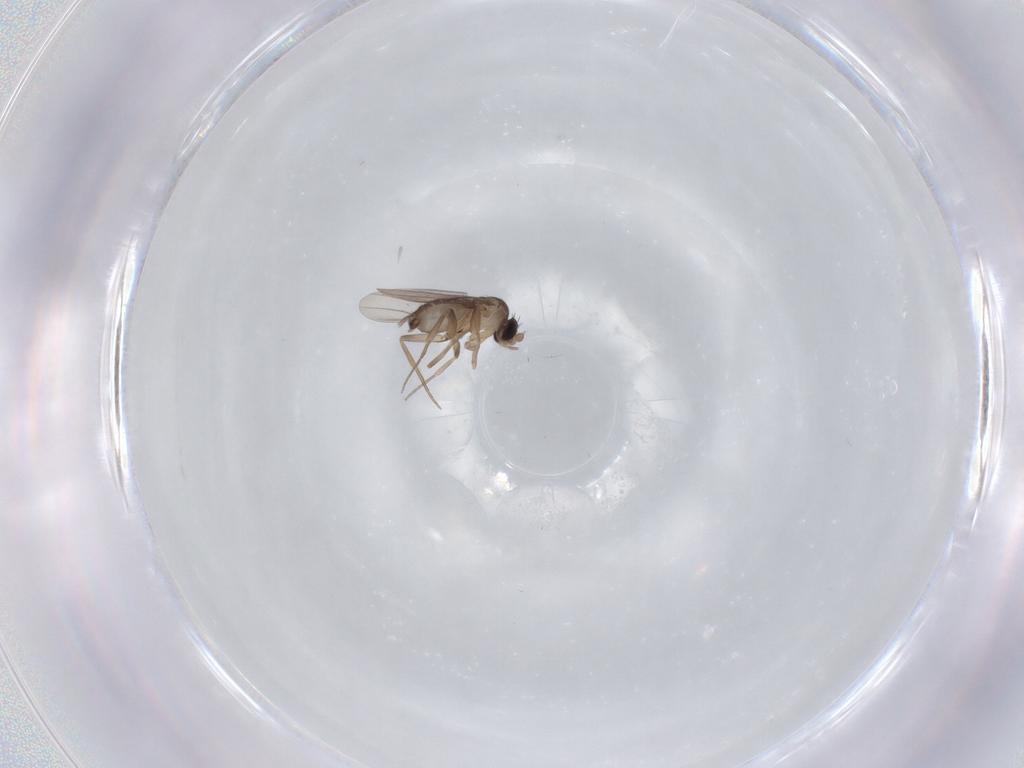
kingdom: Animalia
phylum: Arthropoda
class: Insecta
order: Diptera
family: Phoridae
